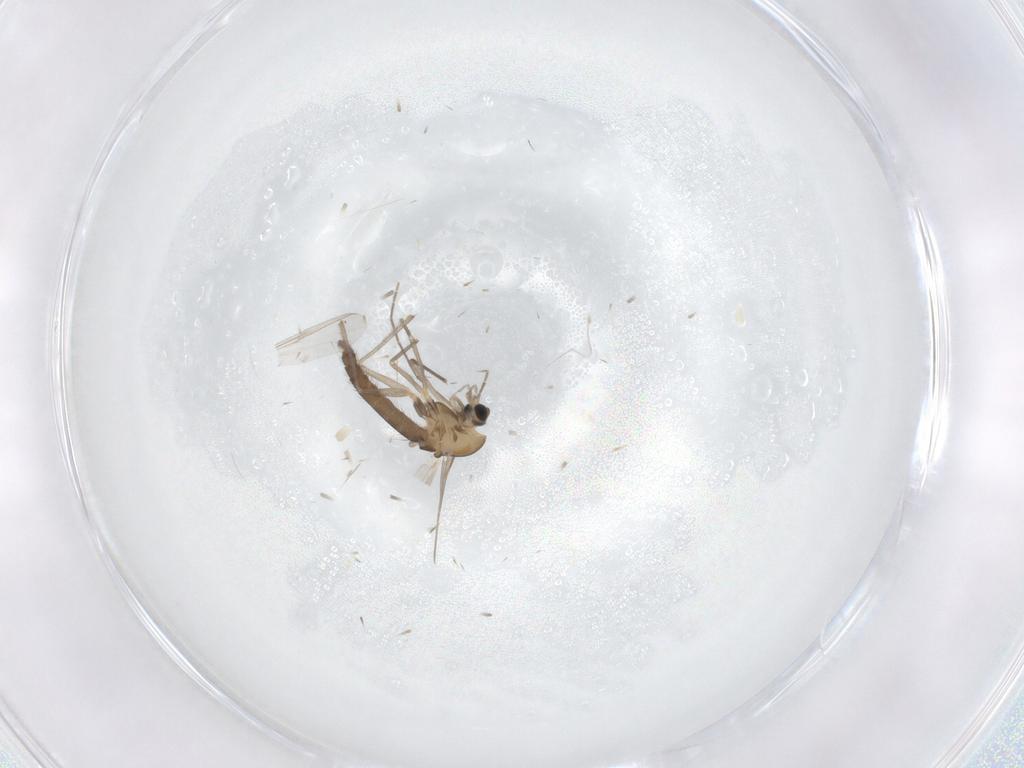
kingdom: Animalia
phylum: Arthropoda
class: Insecta
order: Diptera
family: Chironomidae
